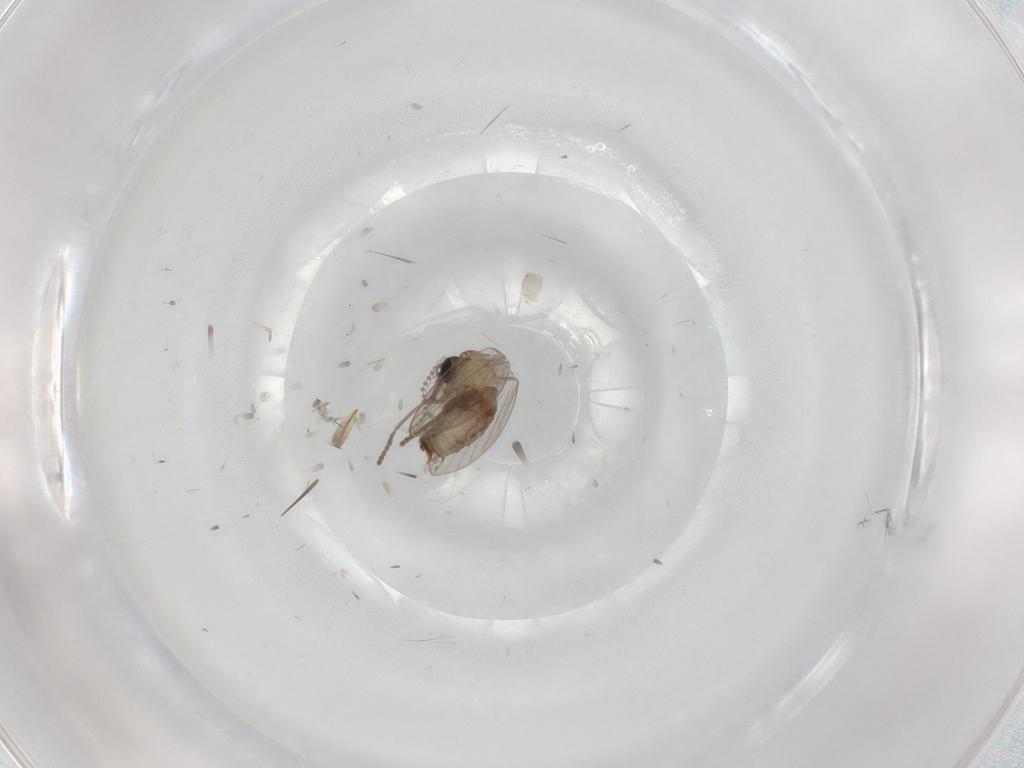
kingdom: Animalia
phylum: Arthropoda
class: Insecta
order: Diptera
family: Psychodidae
